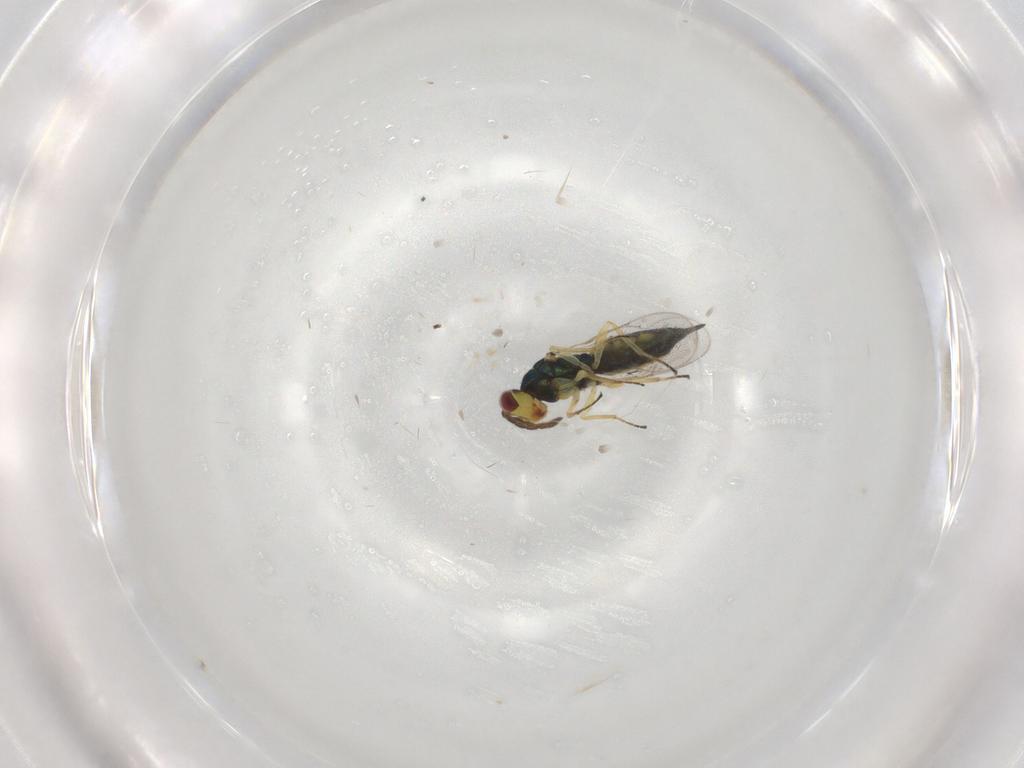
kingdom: Animalia
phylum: Arthropoda
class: Insecta
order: Hymenoptera
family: Eulophidae
